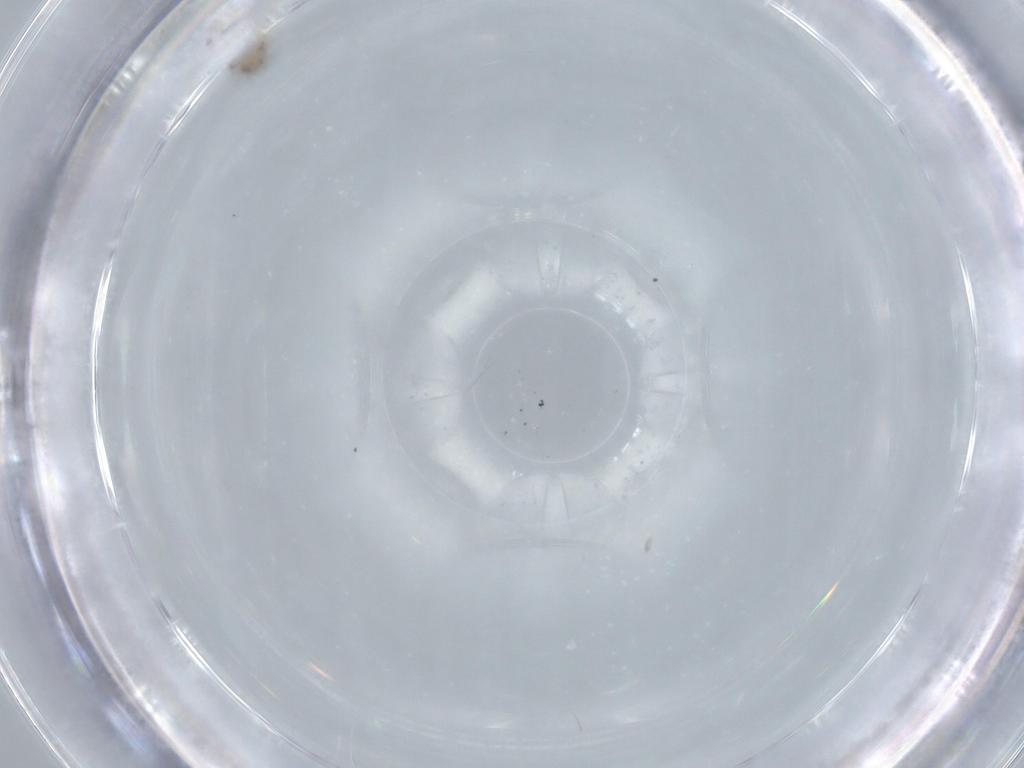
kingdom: Animalia
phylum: Arthropoda
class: Insecta
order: Diptera
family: Cecidomyiidae
